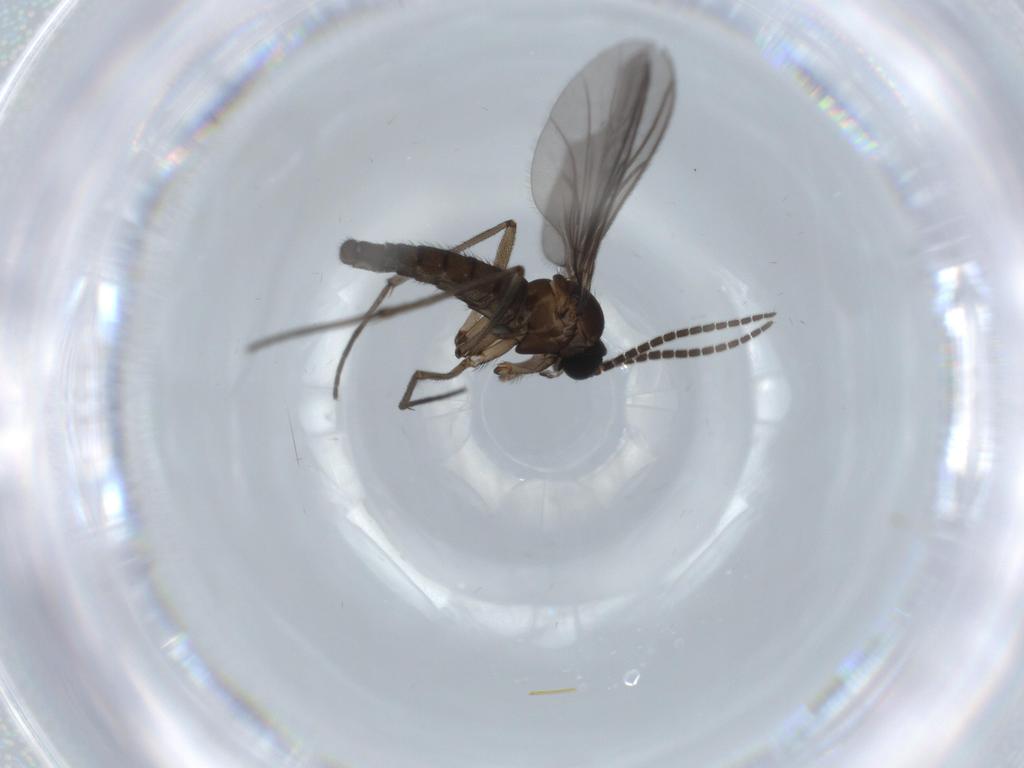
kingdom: Animalia
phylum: Arthropoda
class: Insecta
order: Diptera
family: Sciaridae
